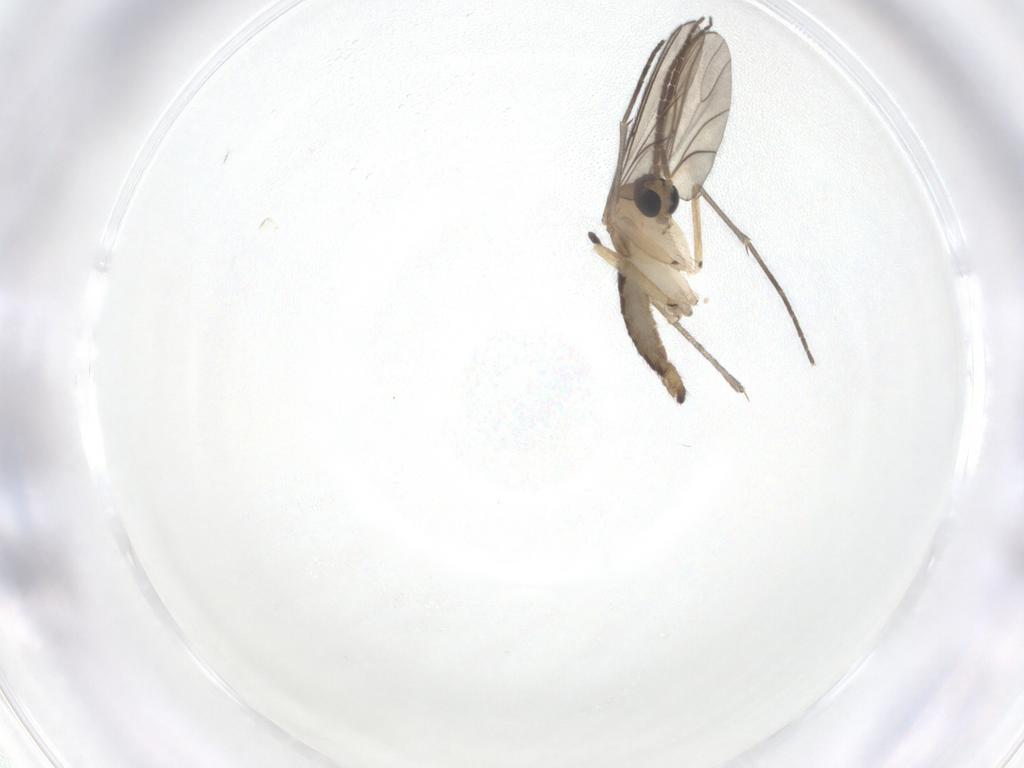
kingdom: Animalia
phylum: Arthropoda
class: Insecta
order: Diptera
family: Sciaridae
